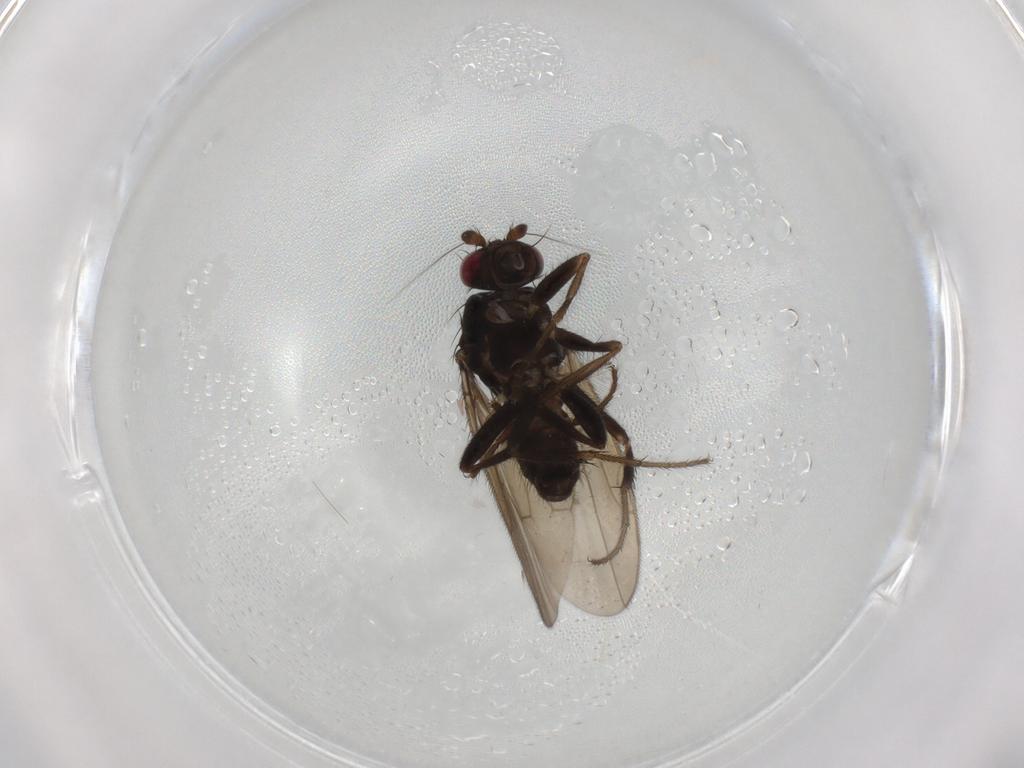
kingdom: Animalia
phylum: Arthropoda
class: Insecta
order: Diptera
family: Sphaeroceridae
